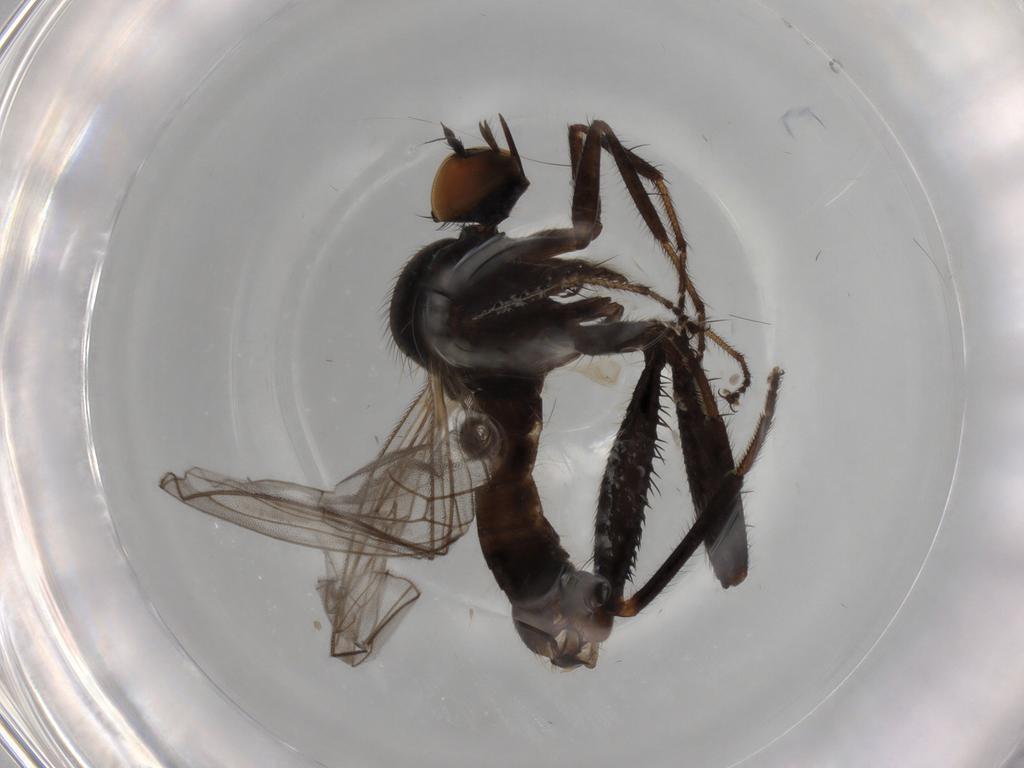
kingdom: Animalia
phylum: Arthropoda
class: Insecta
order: Diptera
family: Hybotidae
